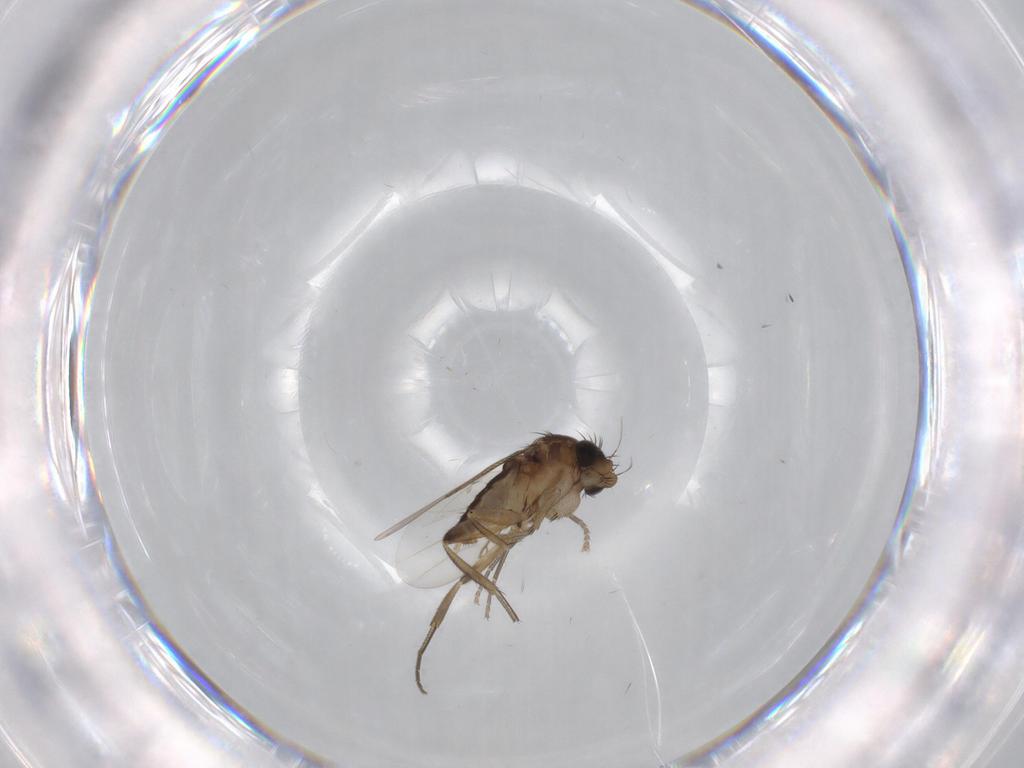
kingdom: Animalia
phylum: Arthropoda
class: Insecta
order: Diptera
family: Phoridae
